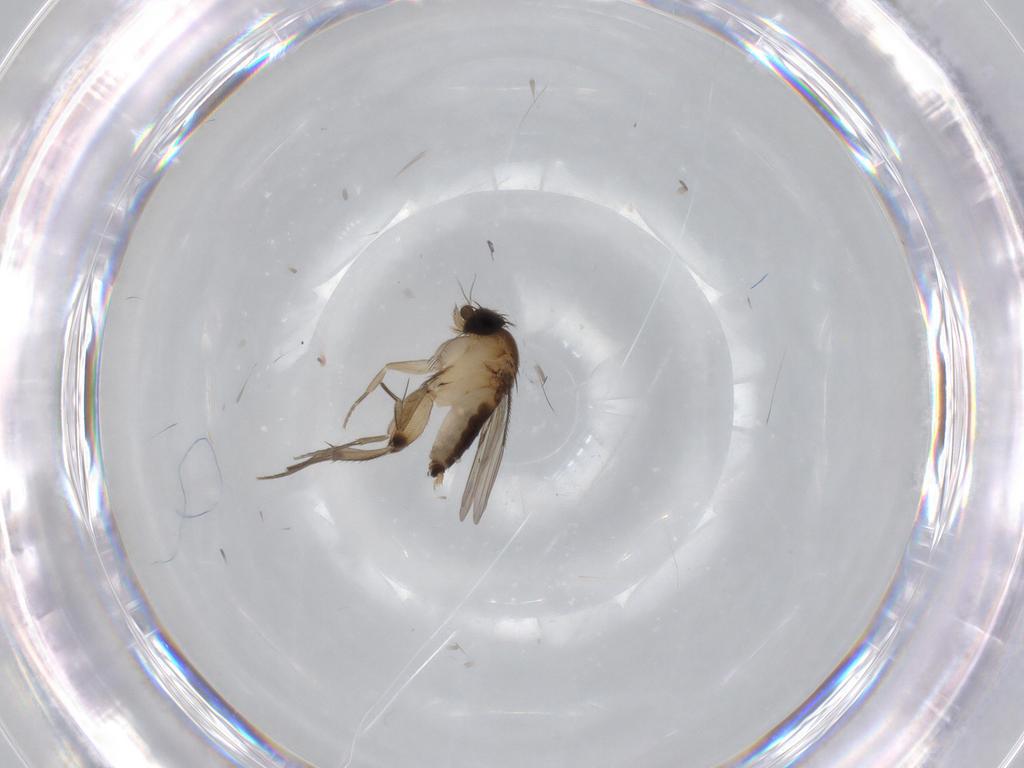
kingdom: Animalia
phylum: Arthropoda
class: Insecta
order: Diptera
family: Phoridae
